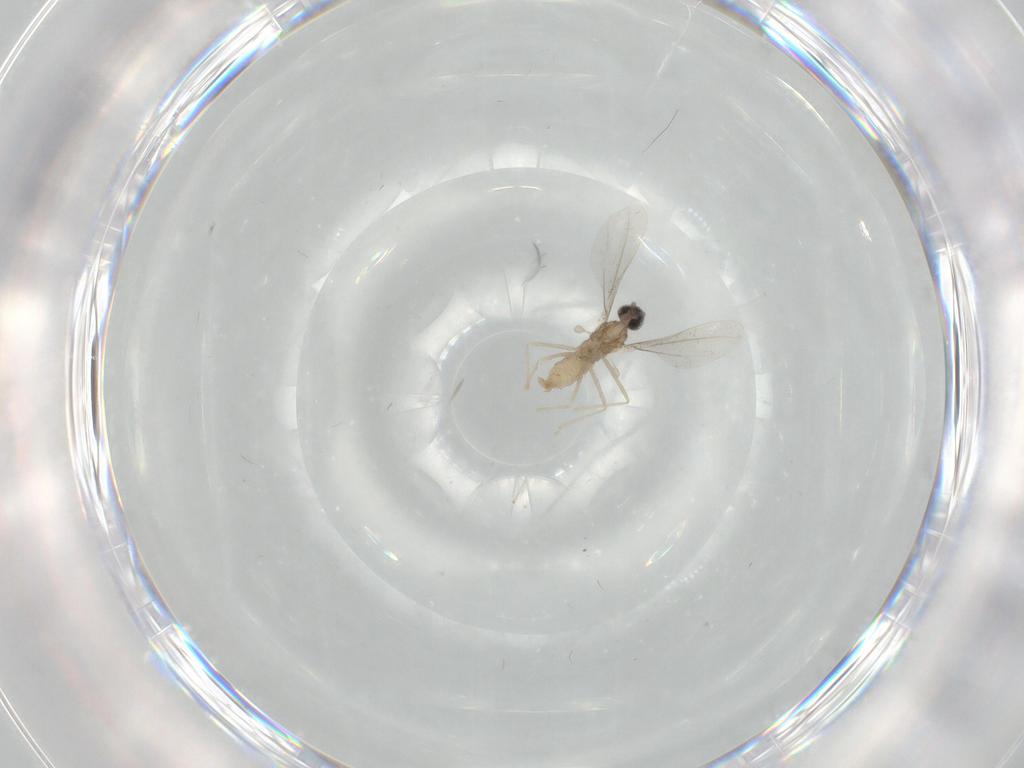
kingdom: Animalia
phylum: Arthropoda
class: Insecta
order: Diptera
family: Cecidomyiidae
